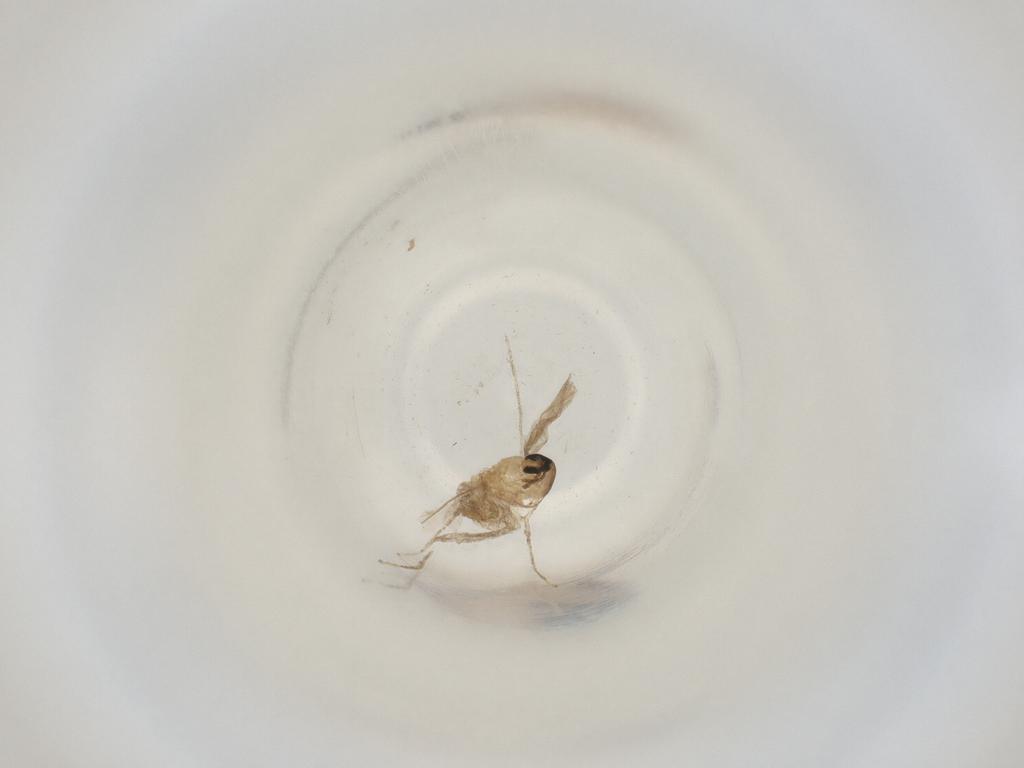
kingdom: Animalia
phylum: Arthropoda
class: Insecta
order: Diptera
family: Cecidomyiidae
